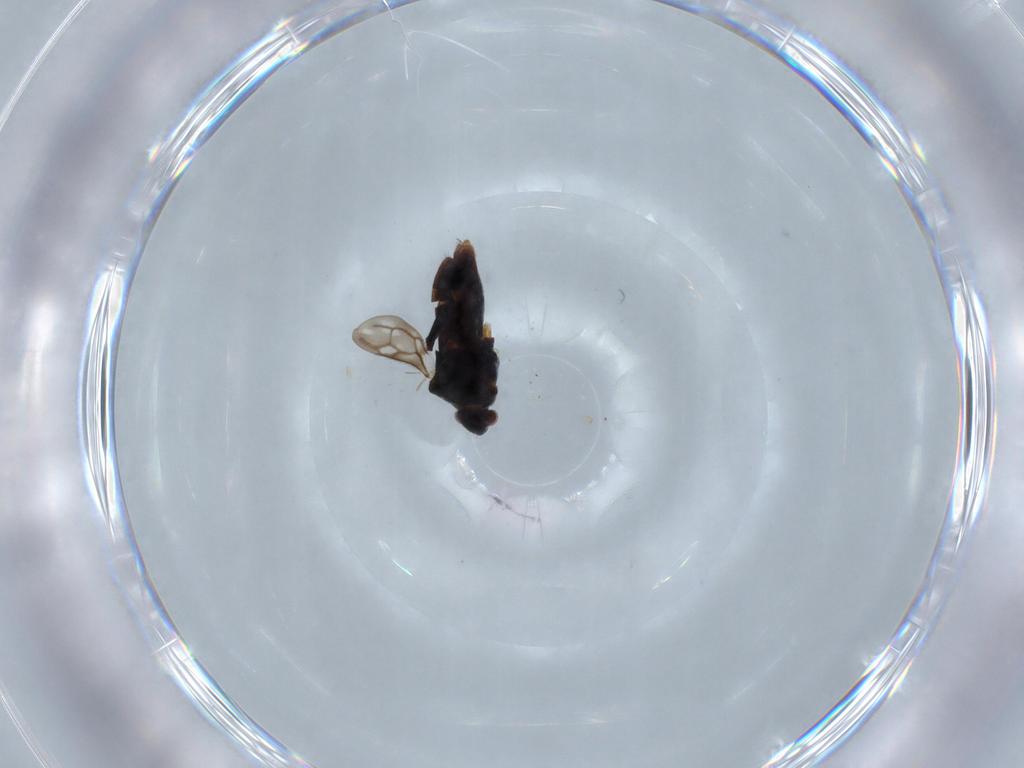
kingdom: Animalia
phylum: Arthropoda
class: Insecta
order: Hemiptera
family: Veliidae
